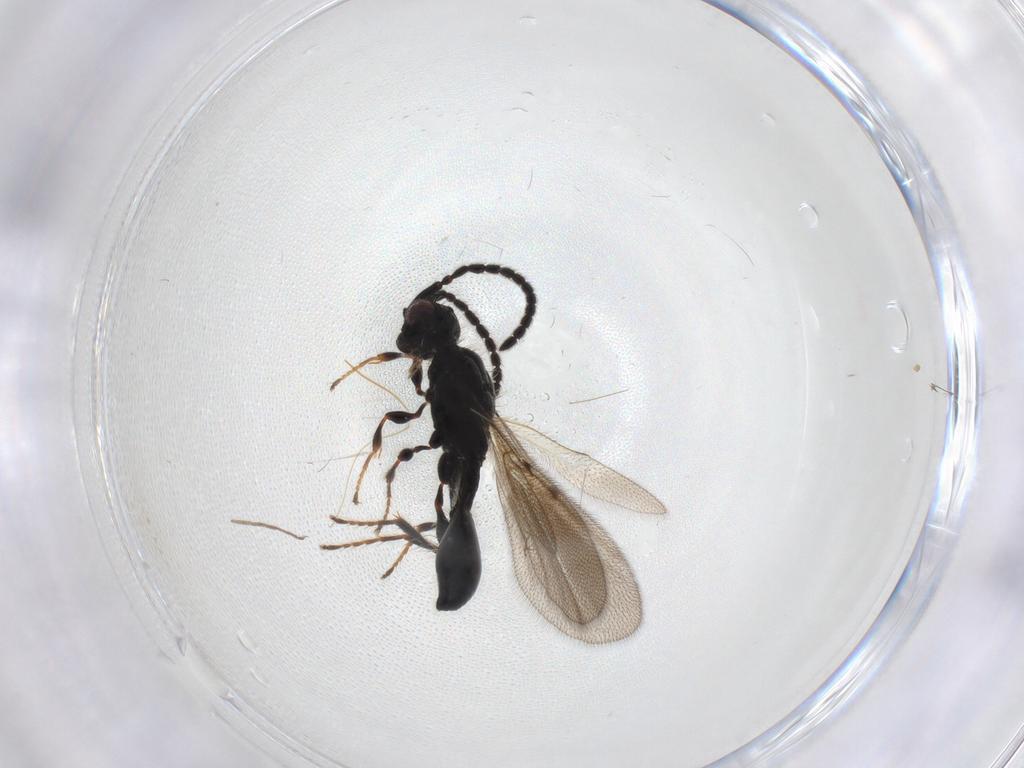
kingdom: Animalia
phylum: Arthropoda
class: Insecta
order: Hymenoptera
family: Diapriidae
